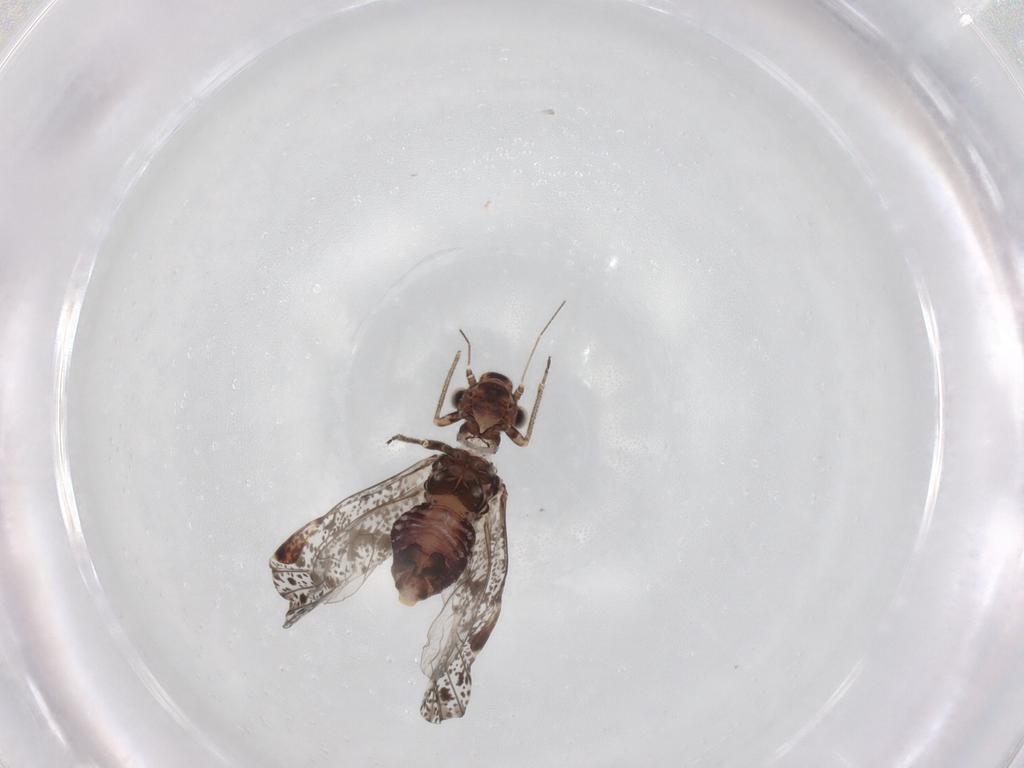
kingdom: Animalia
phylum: Arthropoda
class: Insecta
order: Psocodea
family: Psocidae
